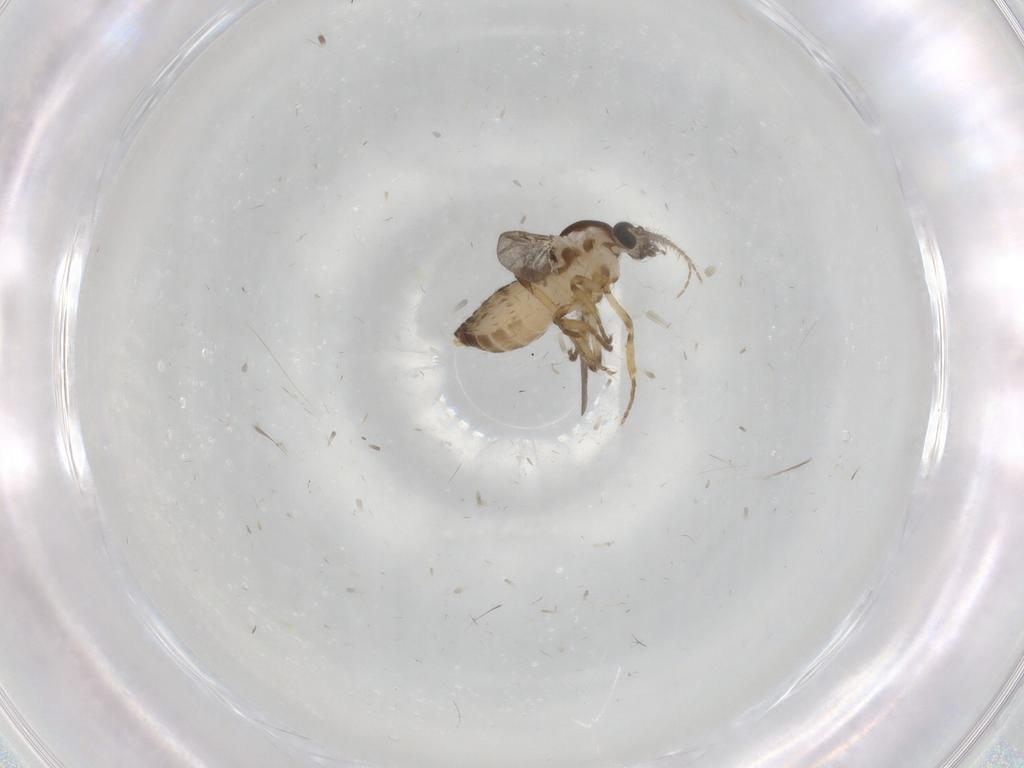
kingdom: Animalia
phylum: Arthropoda
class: Insecta
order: Diptera
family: Ceratopogonidae
